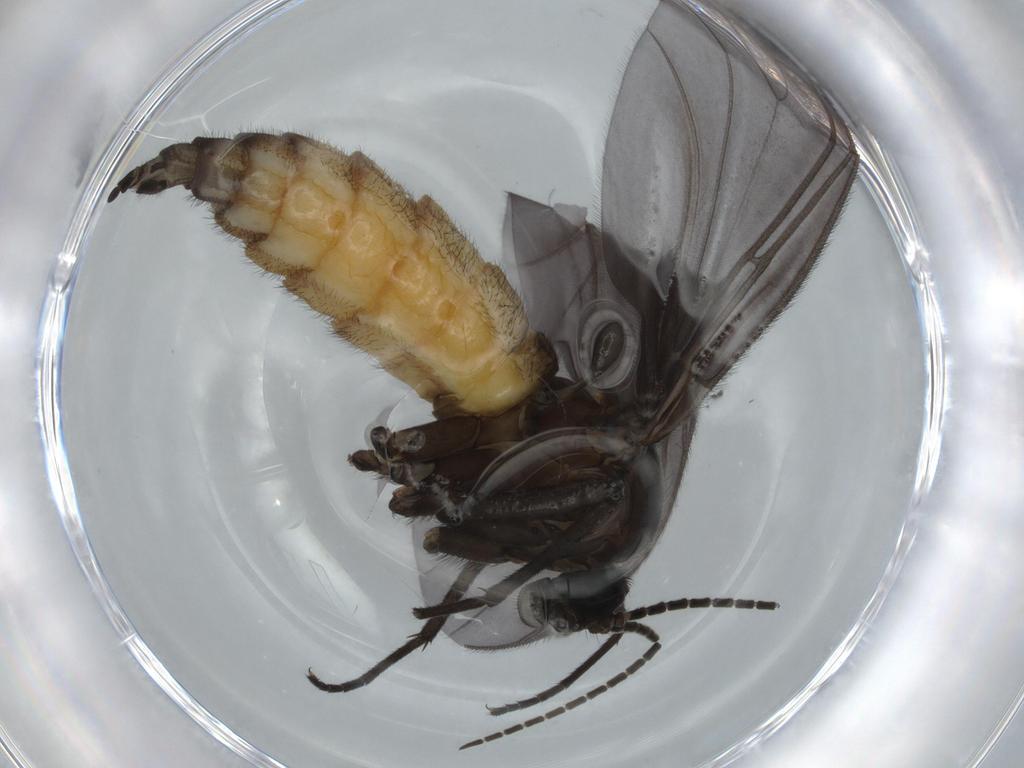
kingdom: Animalia
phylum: Arthropoda
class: Insecta
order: Diptera
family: Cecidomyiidae
